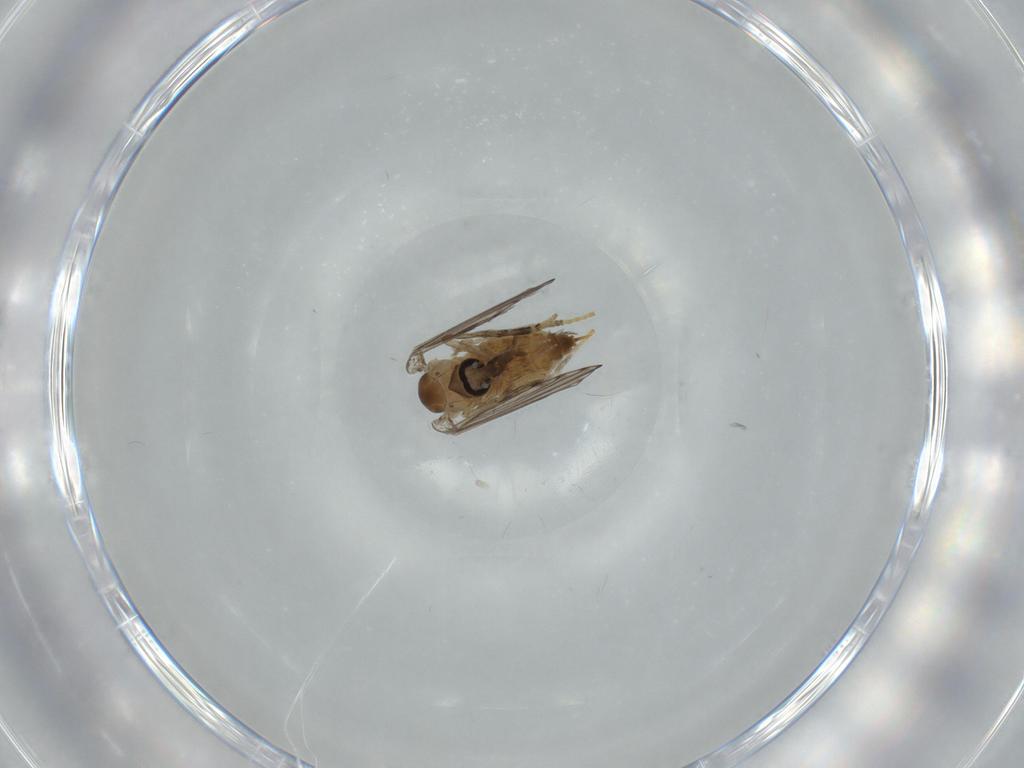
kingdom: Animalia
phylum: Arthropoda
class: Insecta
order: Diptera
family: Psychodidae
